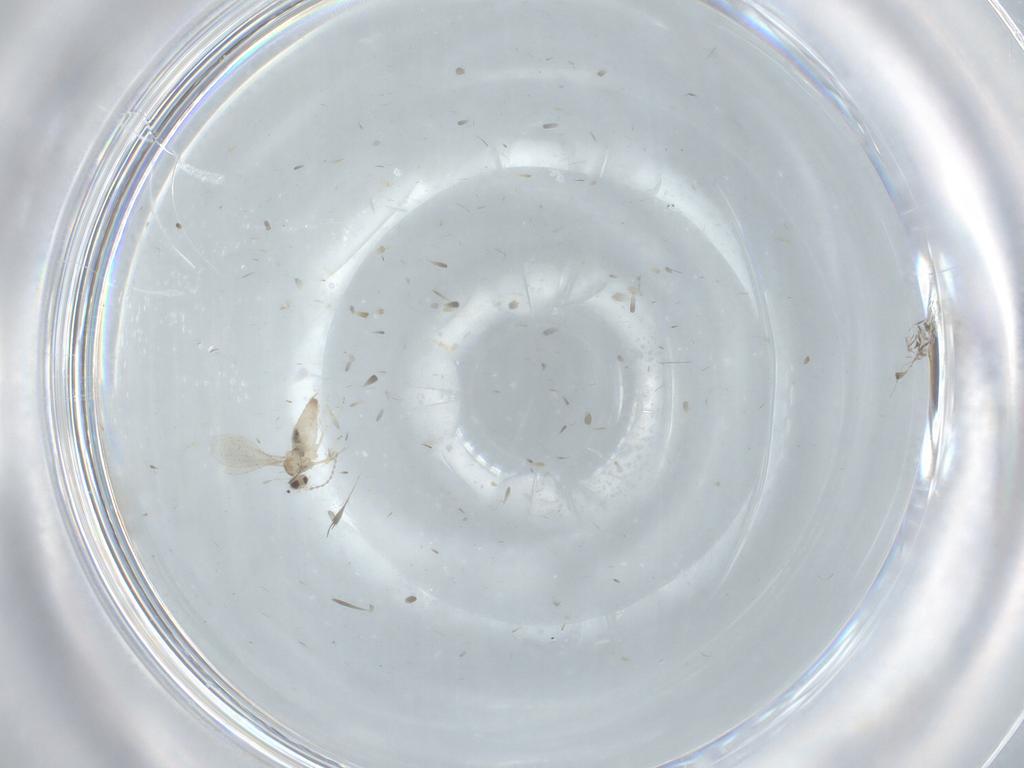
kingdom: Animalia
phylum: Arthropoda
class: Insecta
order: Diptera
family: Cecidomyiidae
